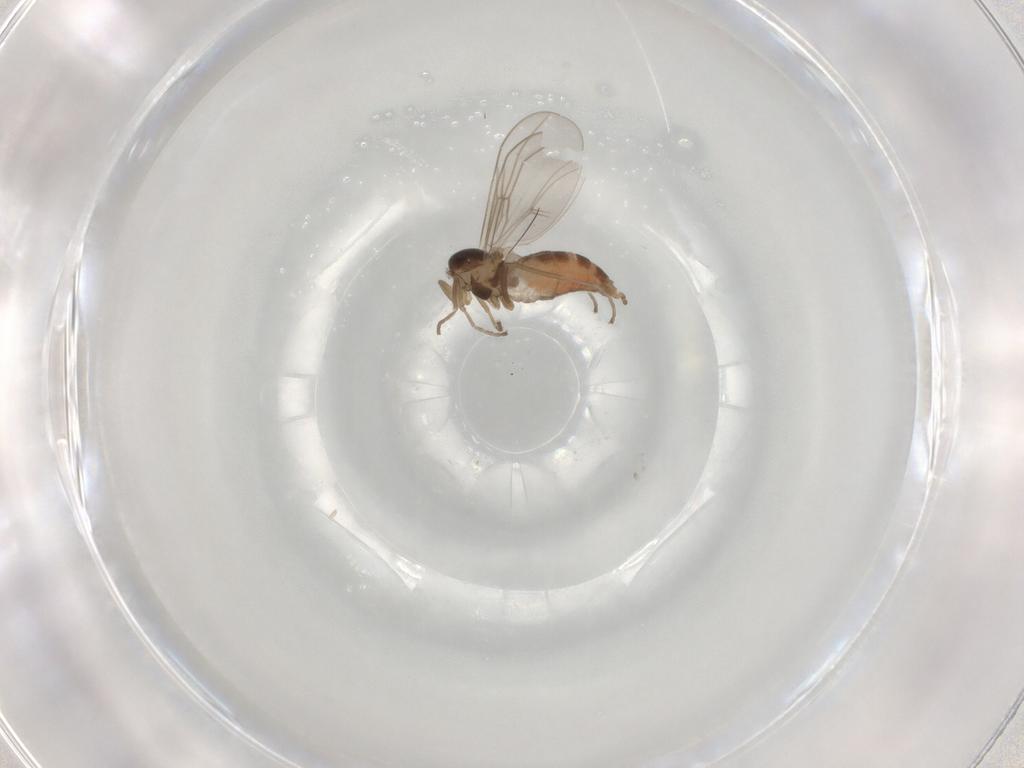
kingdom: Animalia
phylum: Arthropoda
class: Insecta
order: Diptera
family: Cecidomyiidae
